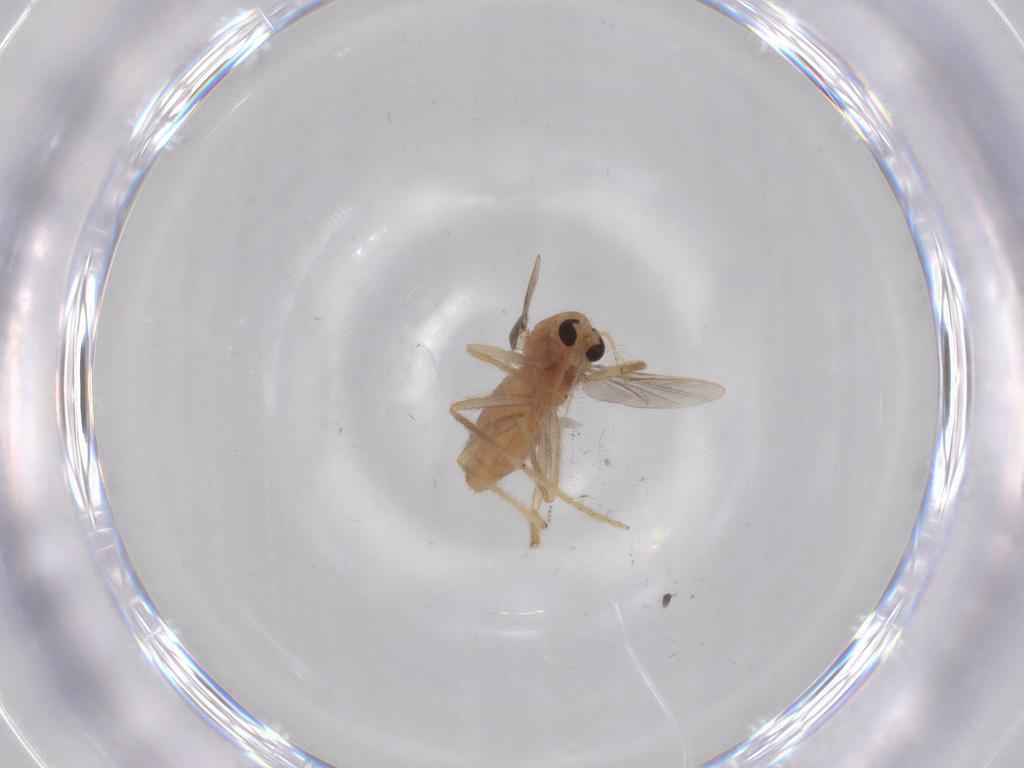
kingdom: Animalia
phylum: Arthropoda
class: Insecta
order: Diptera
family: Chironomidae
